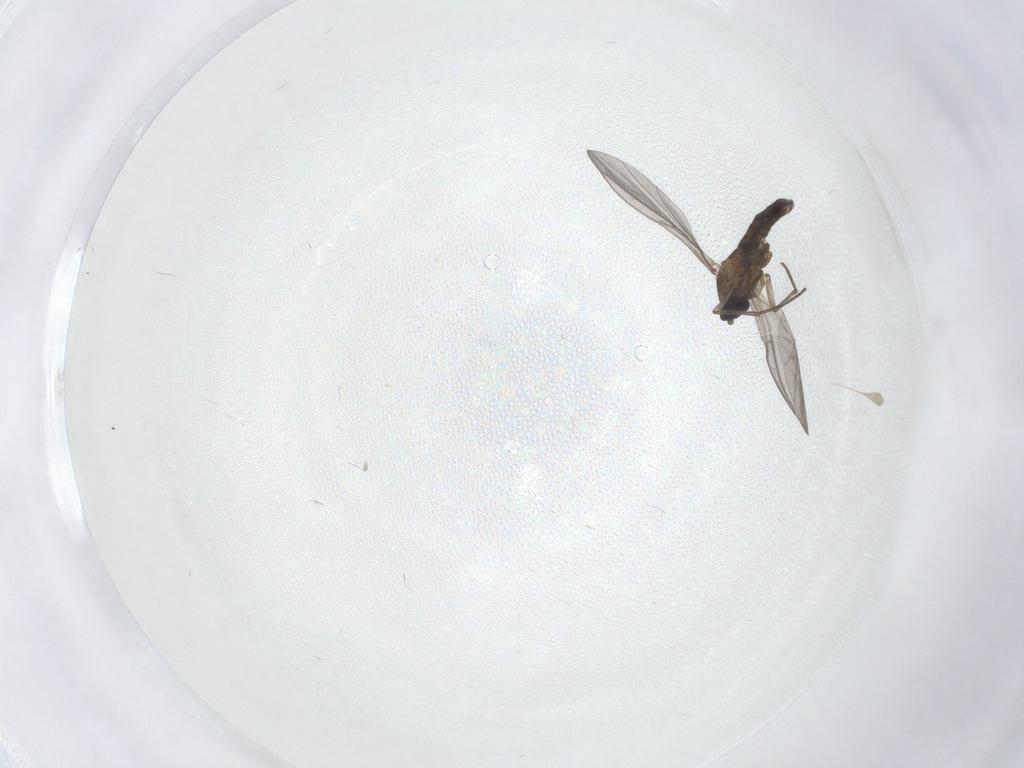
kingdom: Animalia
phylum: Arthropoda
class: Insecta
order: Diptera
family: Sciaridae
